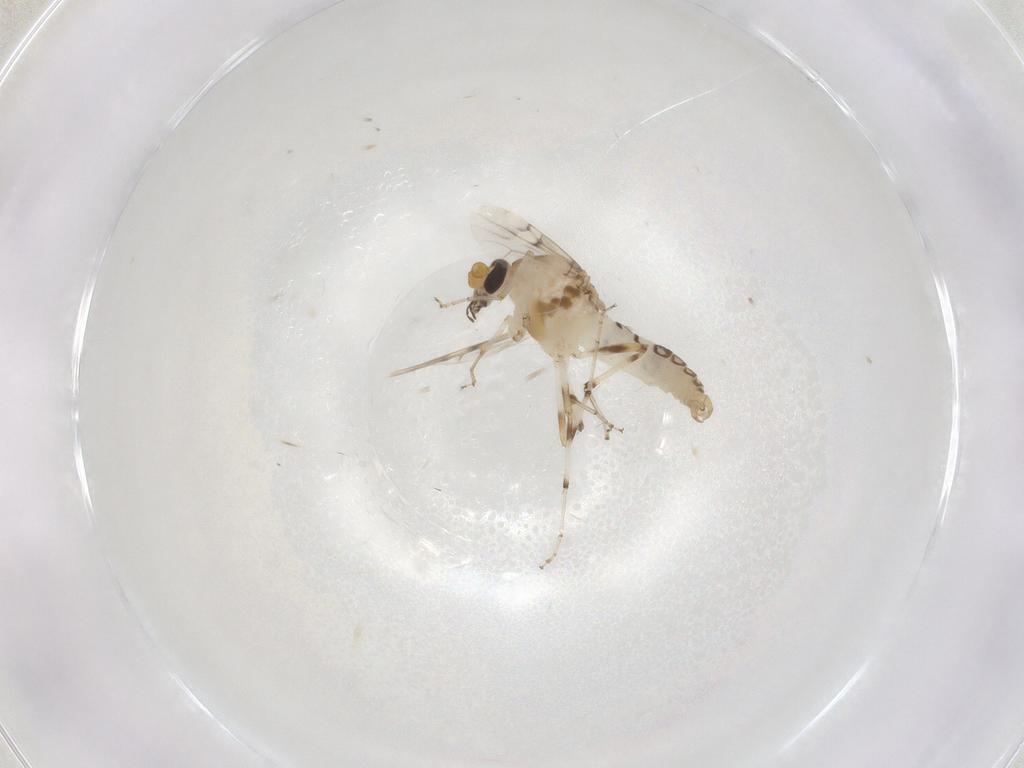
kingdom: Animalia
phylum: Arthropoda
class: Insecta
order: Diptera
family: Ceratopogonidae
